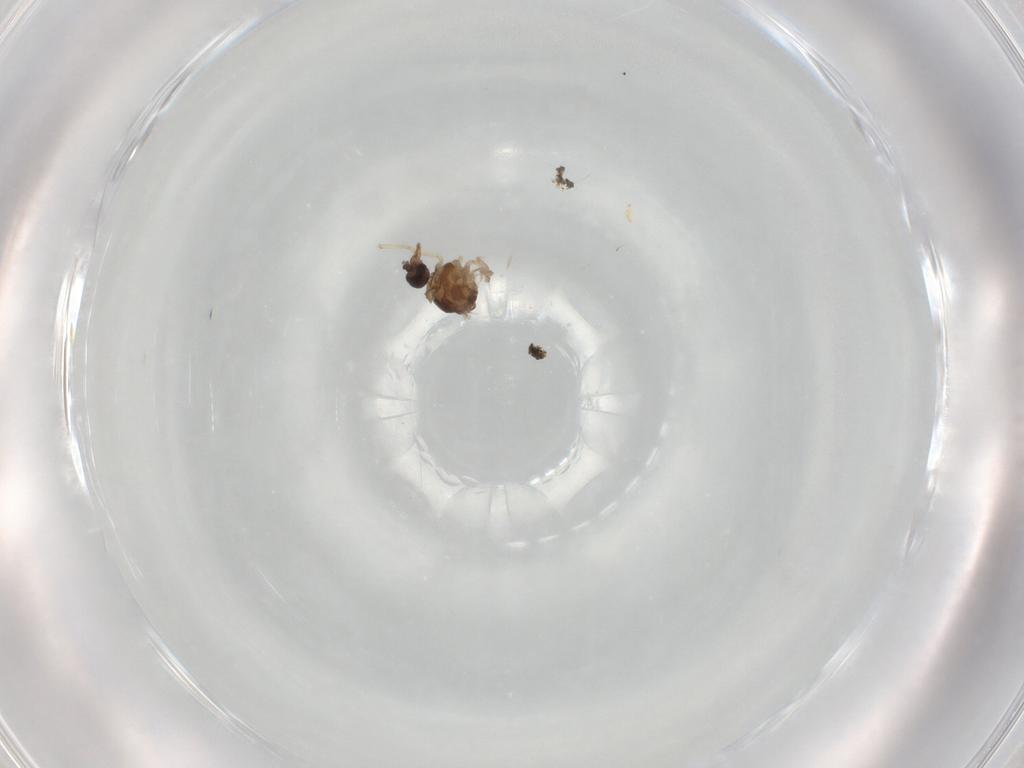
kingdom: Animalia
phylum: Arthropoda
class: Insecta
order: Diptera
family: Ceratopogonidae
